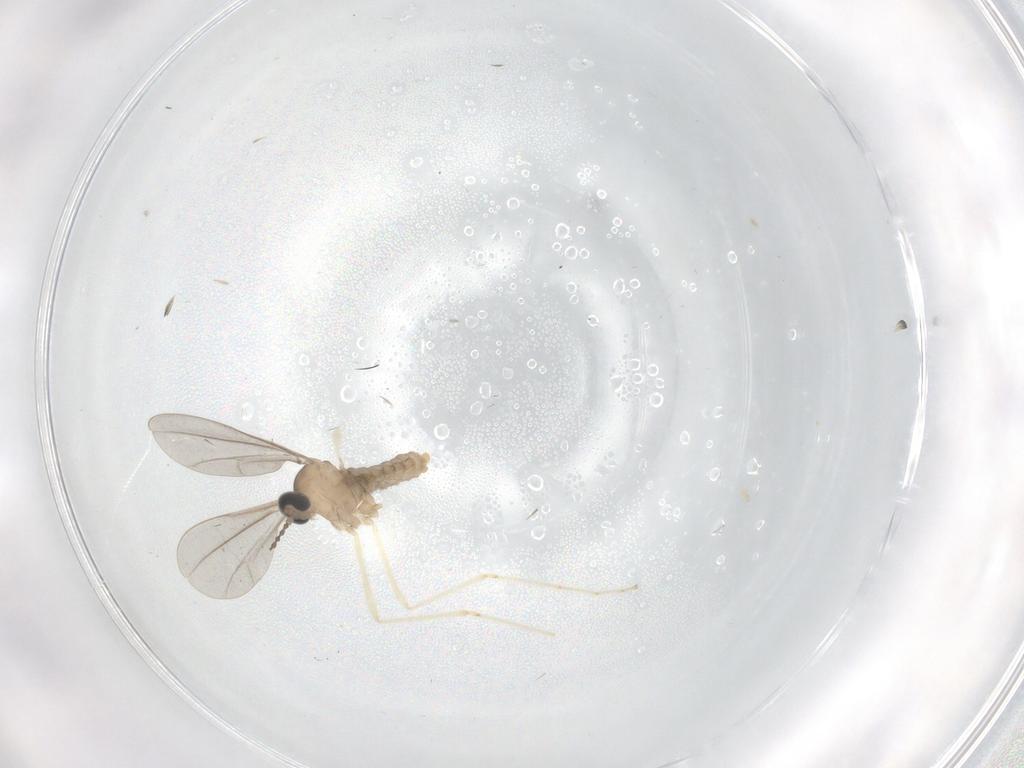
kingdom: Animalia
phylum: Arthropoda
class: Insecta
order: Diptera
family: Cecidomyiidae
